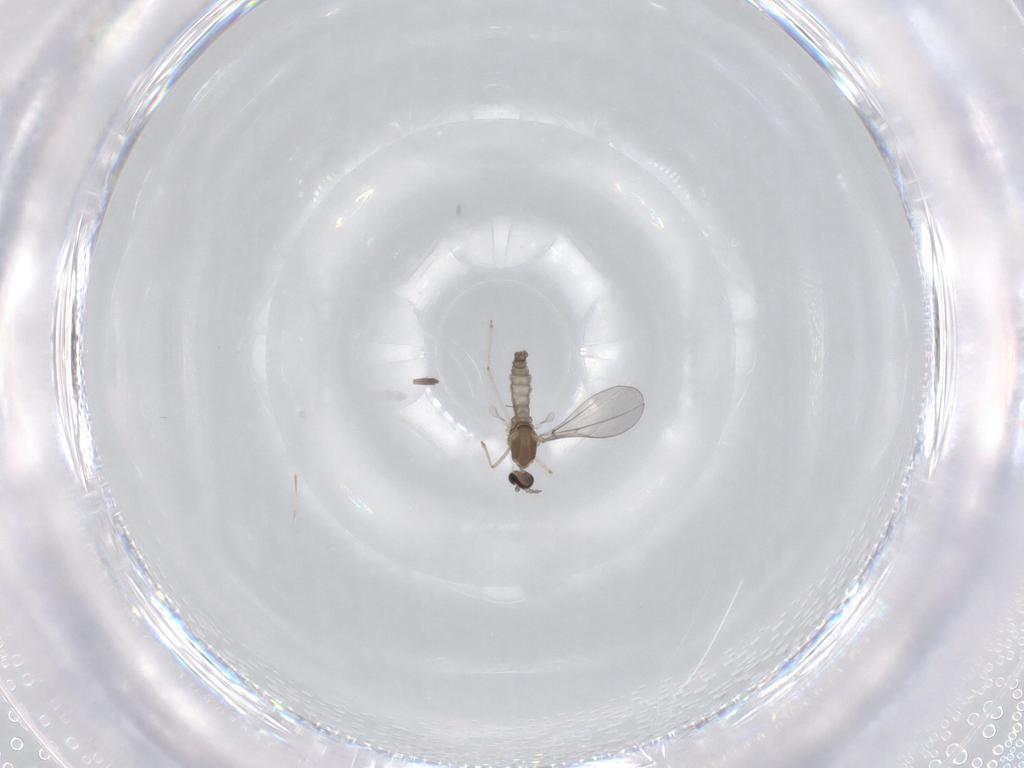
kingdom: Animalia
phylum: Arthropoda
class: Insecta
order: Diptera
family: Cecidomyiidae
